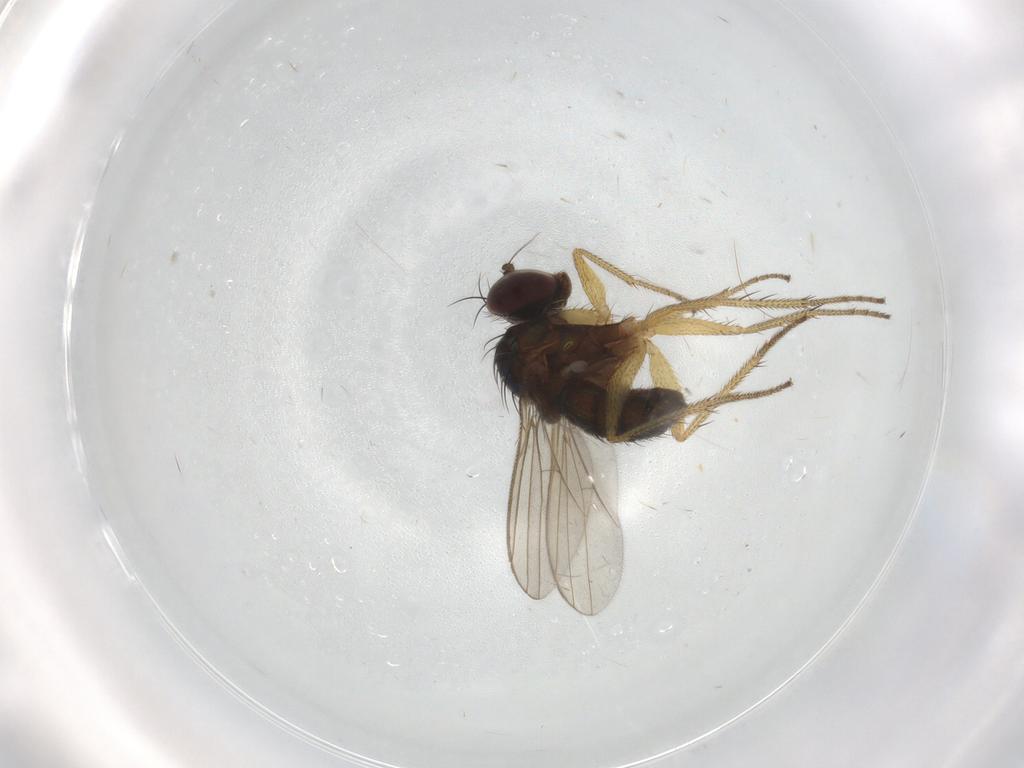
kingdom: Animalia
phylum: Arthropoda
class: Insecta
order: Diptera
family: Dolichopodidae
